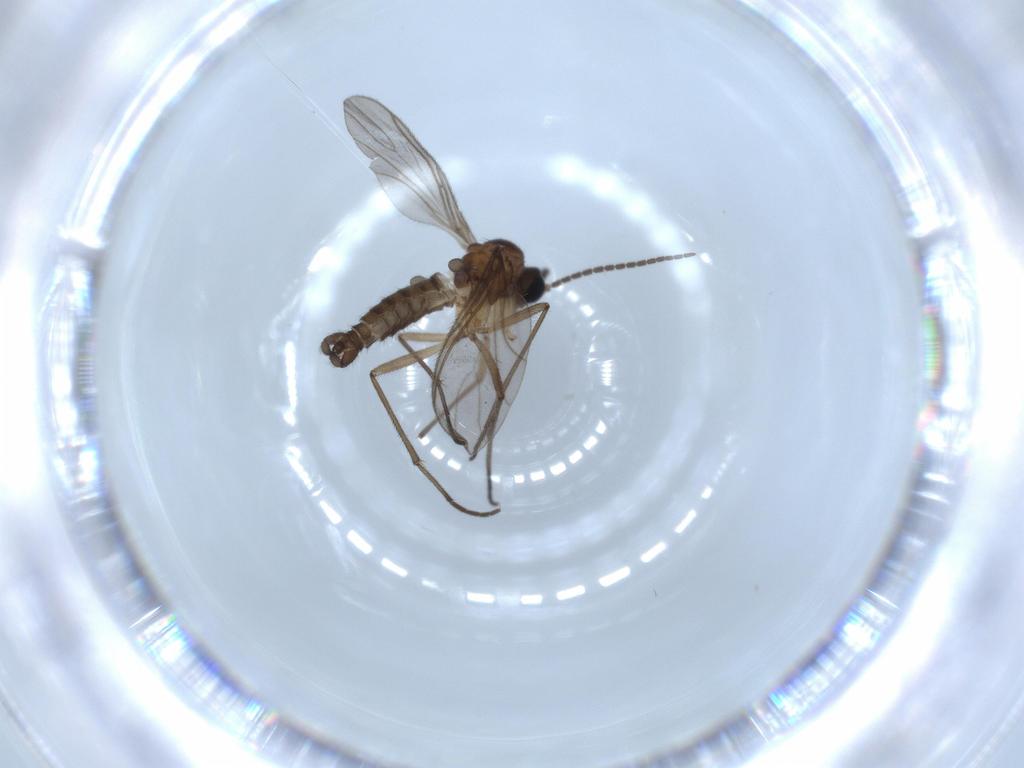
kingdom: Animalia
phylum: Arthropoda
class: Insecta
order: Diptera
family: Sciaridae
